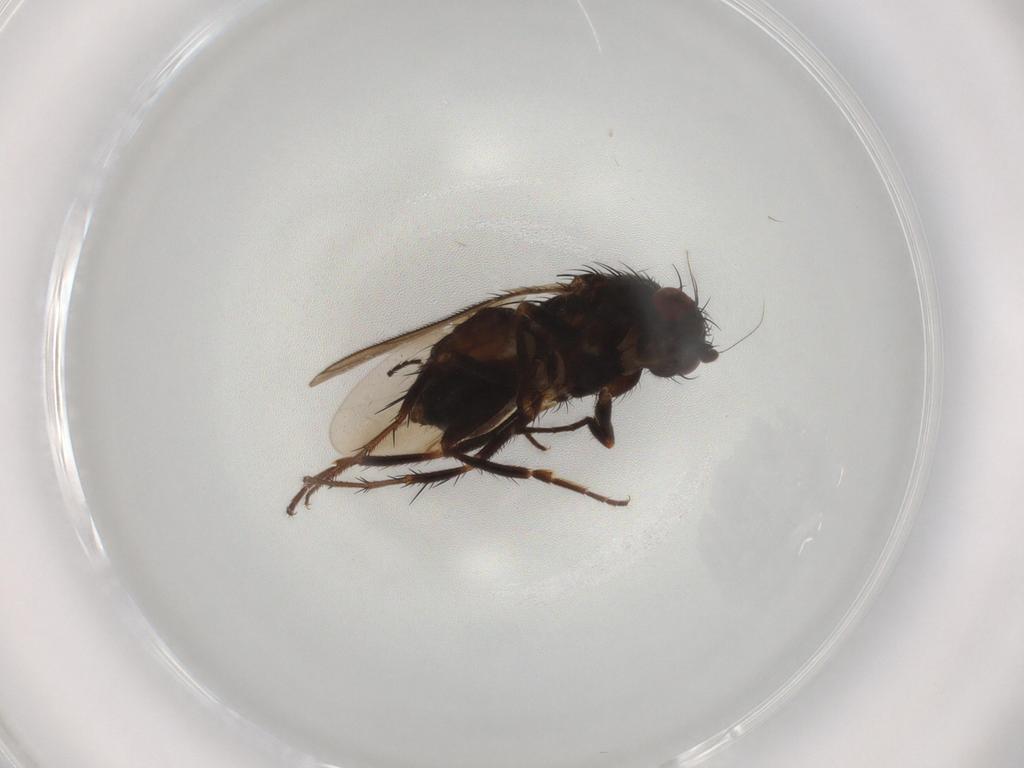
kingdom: Animalia
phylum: Arthropoda
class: Insecta
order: Diptera
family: Sphaeroceridae
